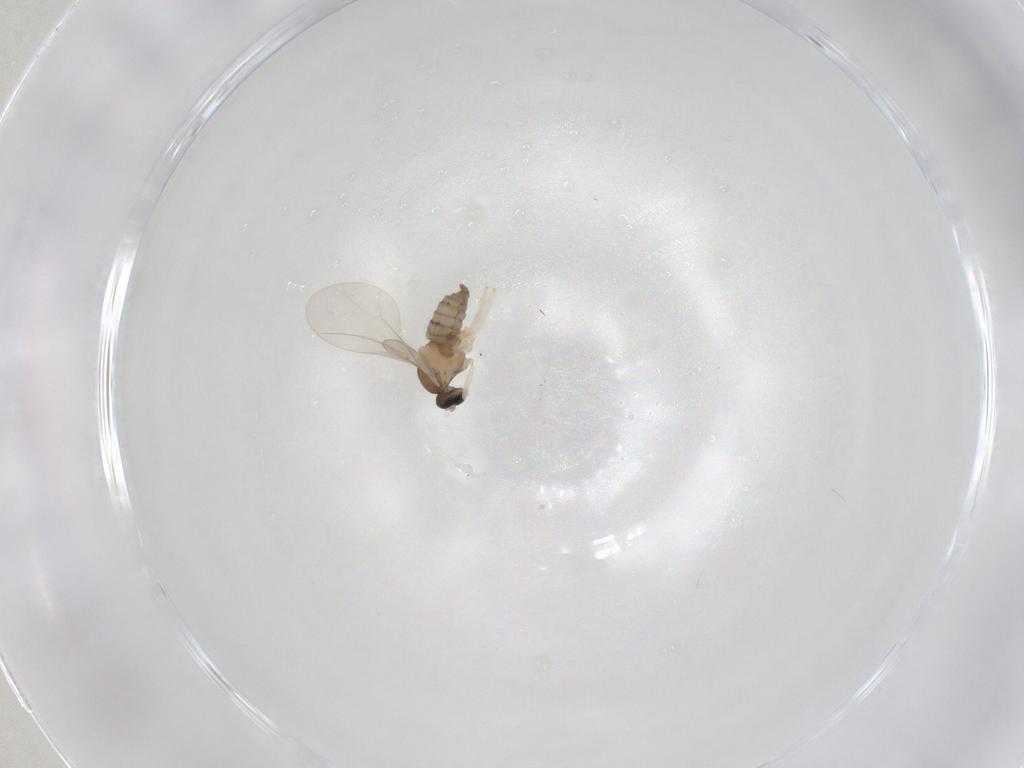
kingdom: Animalia
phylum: Arthropoda
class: Insecta
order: Diptera
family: Cecidomyiidae
